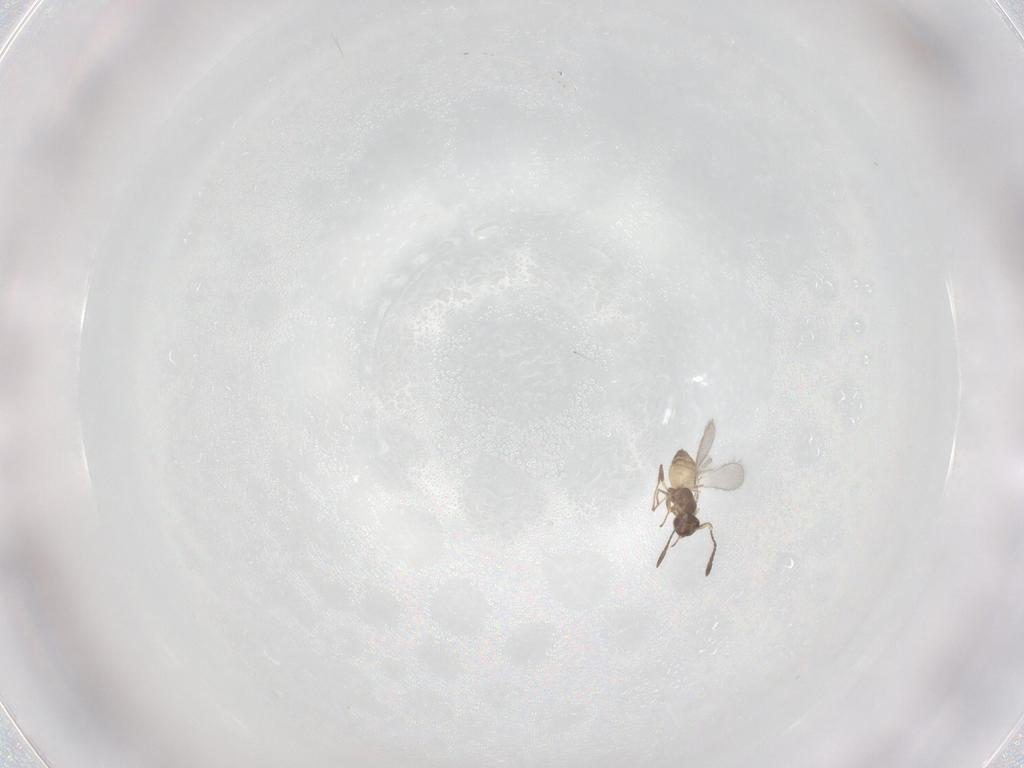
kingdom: Animalia
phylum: Arthropoda
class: Insecta
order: Hymenoptera
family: Mymaridae
